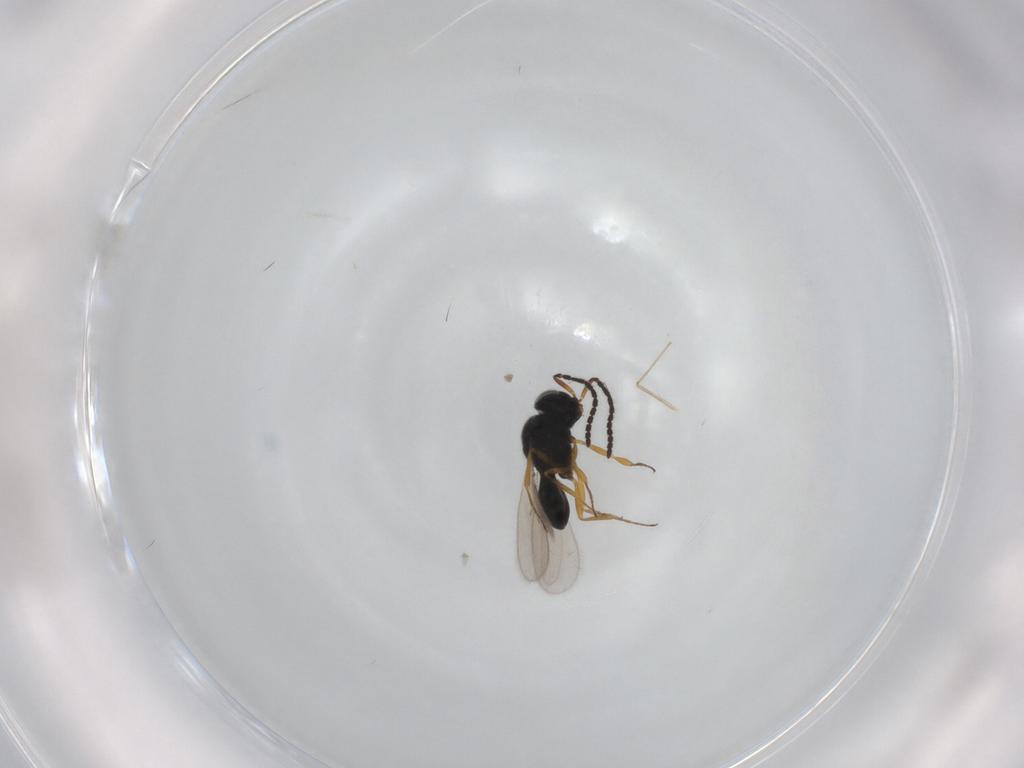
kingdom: Animalia
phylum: Arthropoda
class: Insecta
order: Hymenoptera
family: Scelionidae
